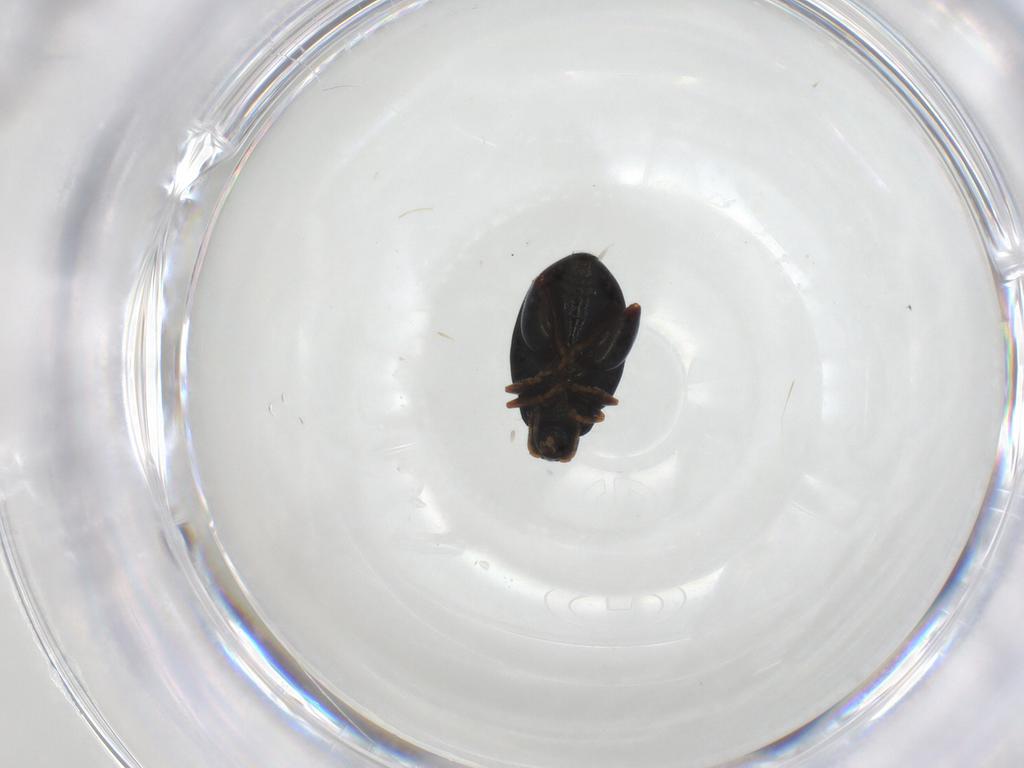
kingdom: Animalia
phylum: Arthropoda
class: Insecta
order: Coleoptera
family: Chrysomelidae
